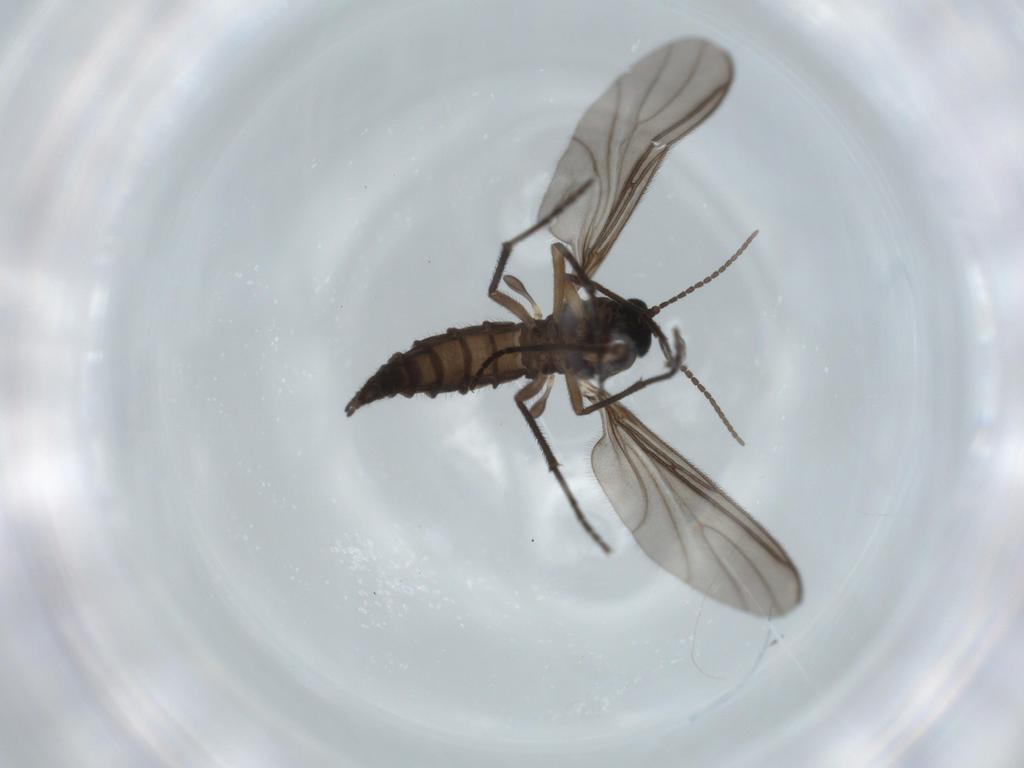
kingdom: Animalia
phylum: Arthropoda
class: Insecta
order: Diptera
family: Sciaridae
